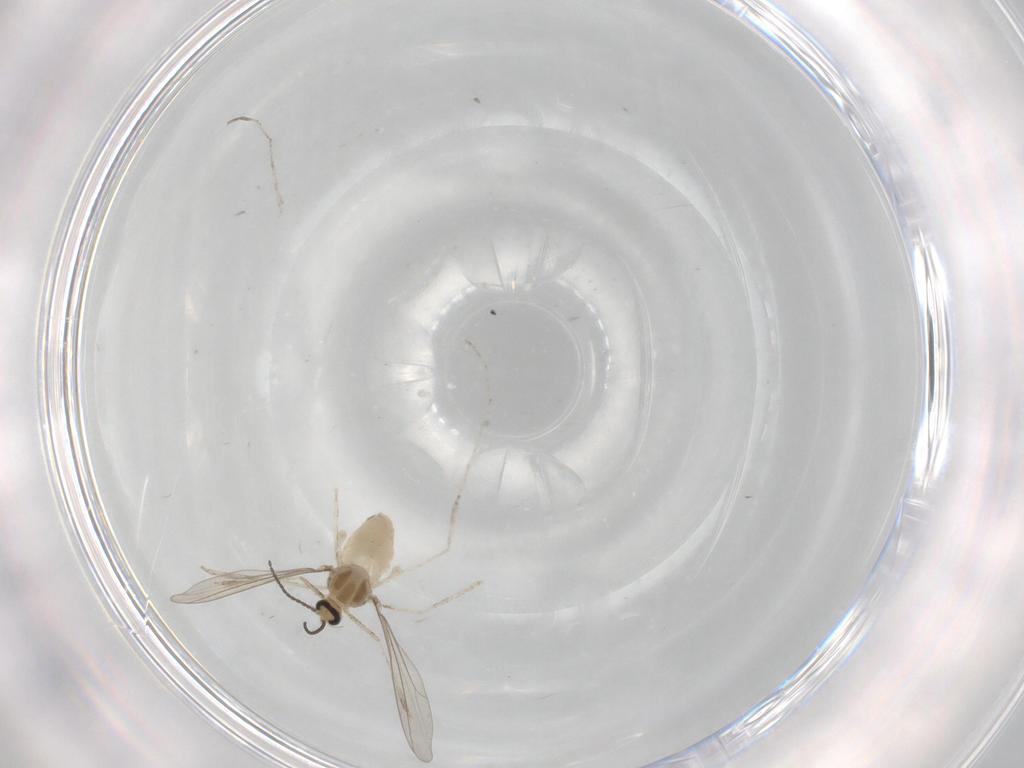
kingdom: Animalia
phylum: Arthropoda
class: Insecta
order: Diptera
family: Cecidomyiidae
